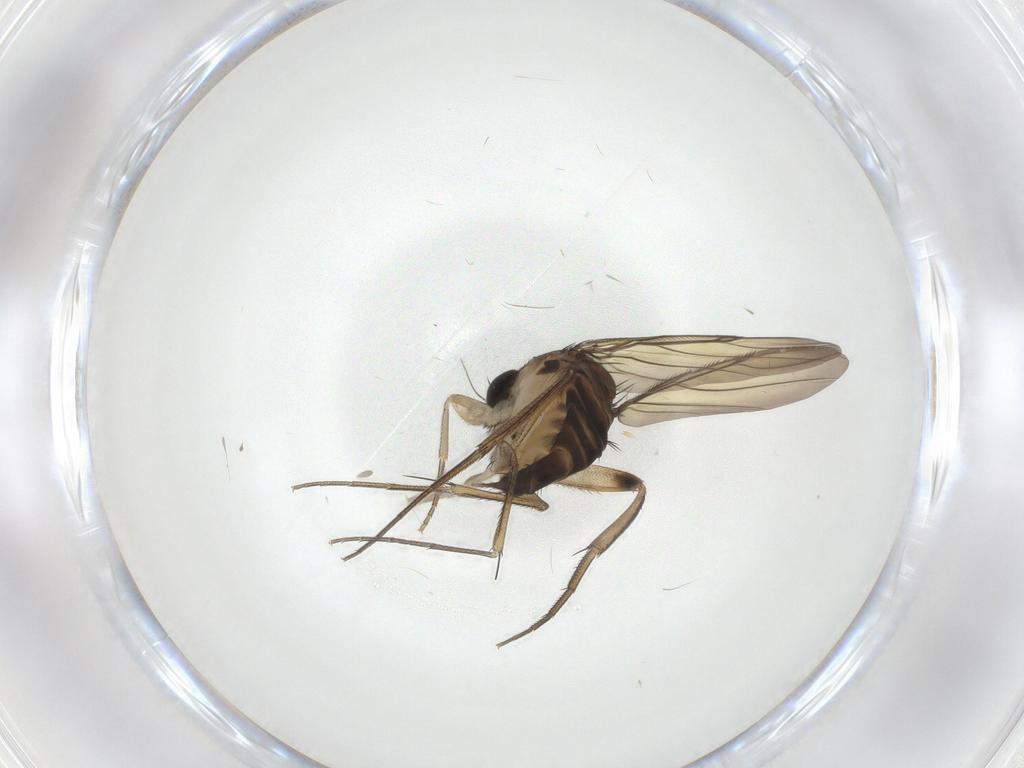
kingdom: Animalia
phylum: Arthropoda
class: Insecta
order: Diptera
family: Phoridae
